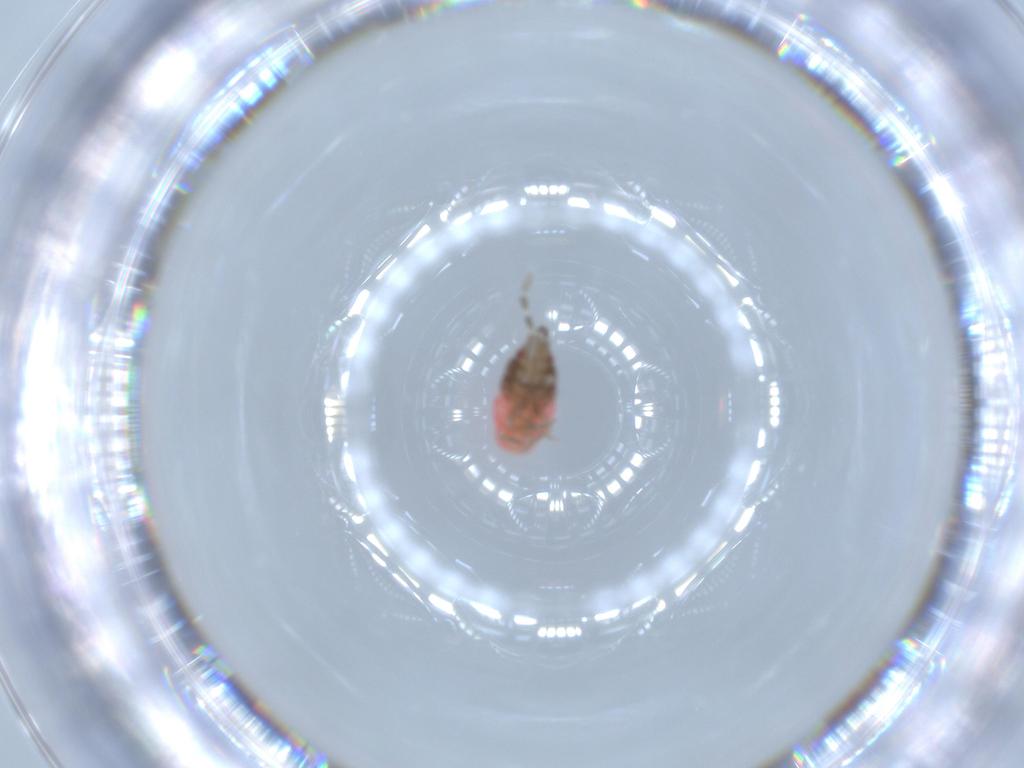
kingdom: Animalia
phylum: Arthropoda
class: Insecta
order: Hemiptera
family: Rhyparochromidae
